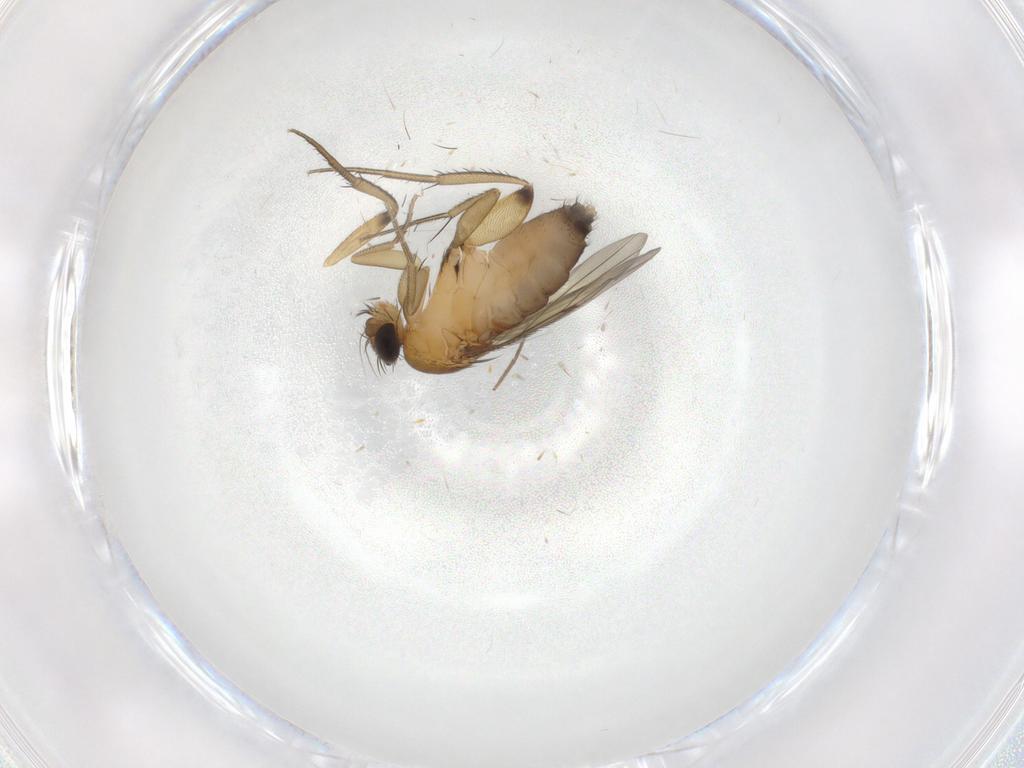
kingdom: Animalia
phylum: Arthropoda
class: Insecta
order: Diptera
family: Phoridae
